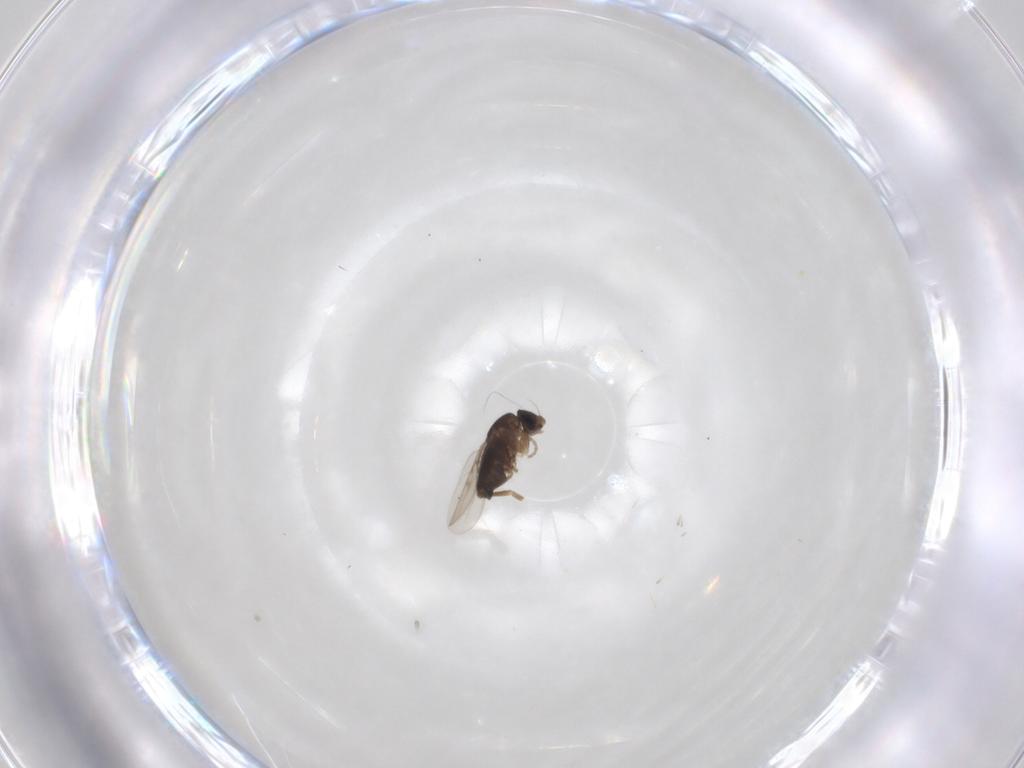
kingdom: Animalia
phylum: Arthropoda
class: Insecta
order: Diptera
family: Phoridae
